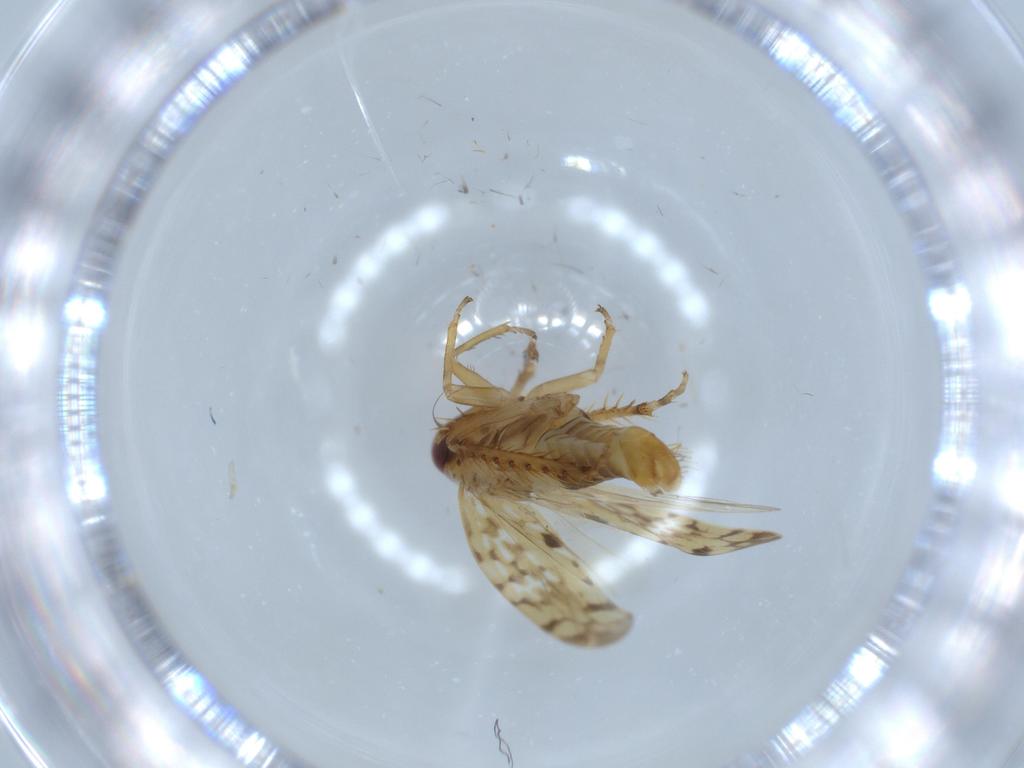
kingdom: Animalia
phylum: Arthropoda
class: Insecta
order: Hemiptera
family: Cicadellidae
